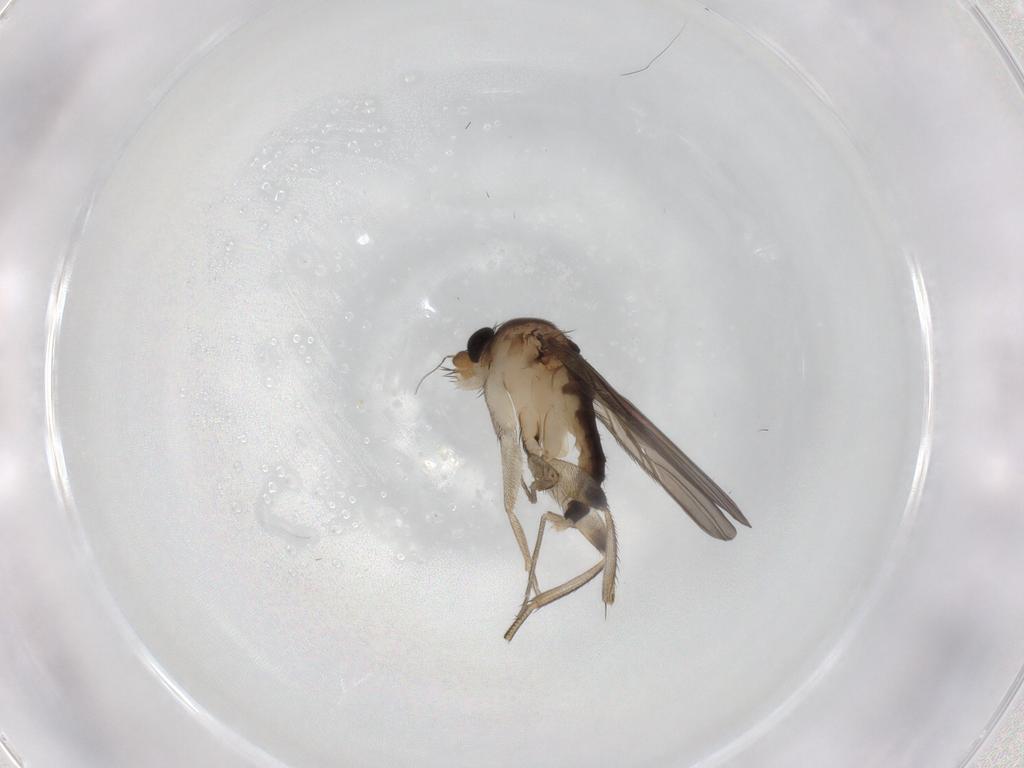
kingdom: Animalia
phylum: Arthropoda
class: Insecta
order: Diptera
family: Phoridae
